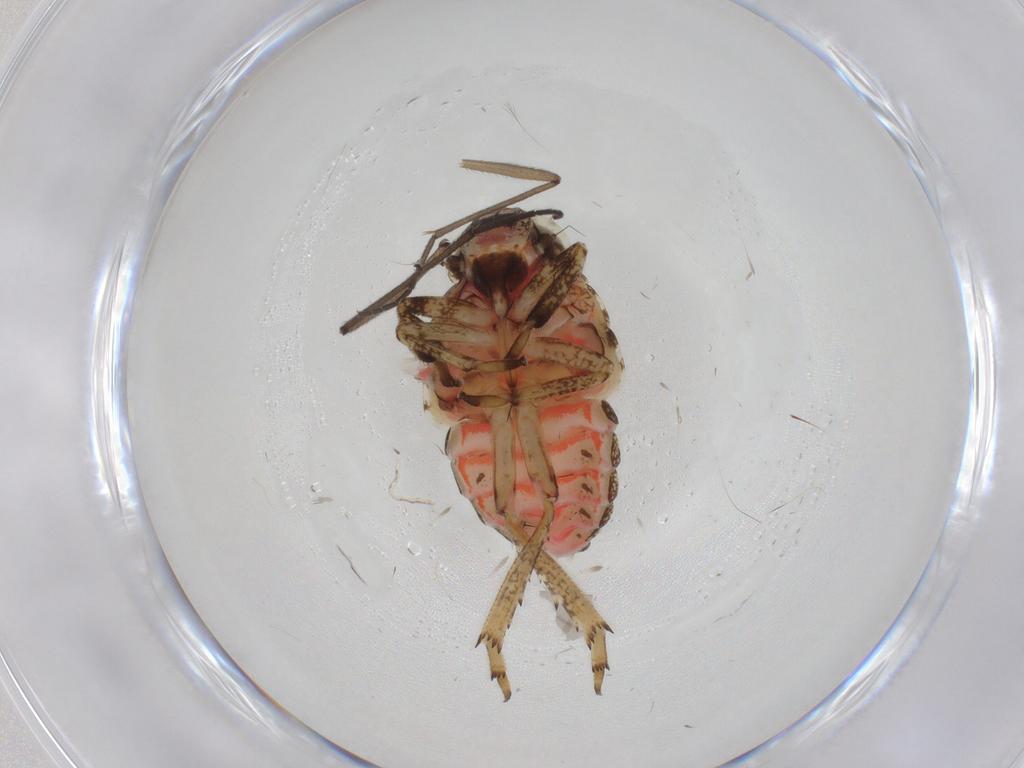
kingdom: Animalia
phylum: Arthropoda
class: Insecta
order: Hemiptera
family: Issidae
